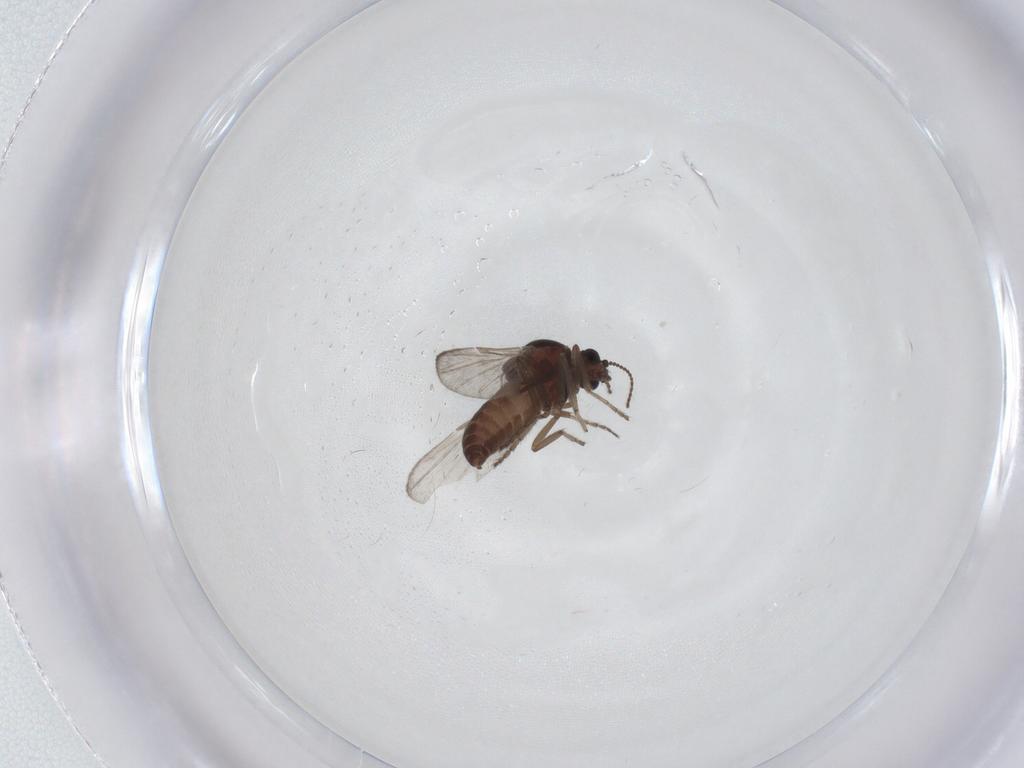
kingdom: Animalia
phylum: Arthropoda
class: Insecta
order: Diptera
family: Ceratopogonidae
